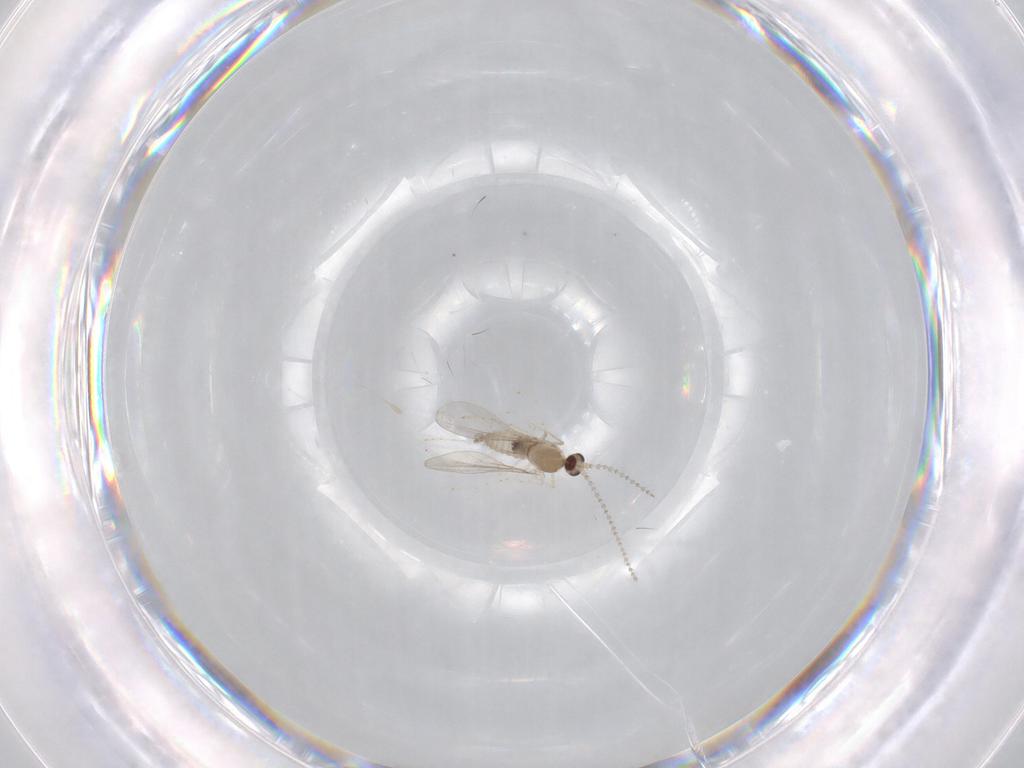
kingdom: Animalia
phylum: Arthropoda
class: Insecta
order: Diptera
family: Cecidomyiidae
